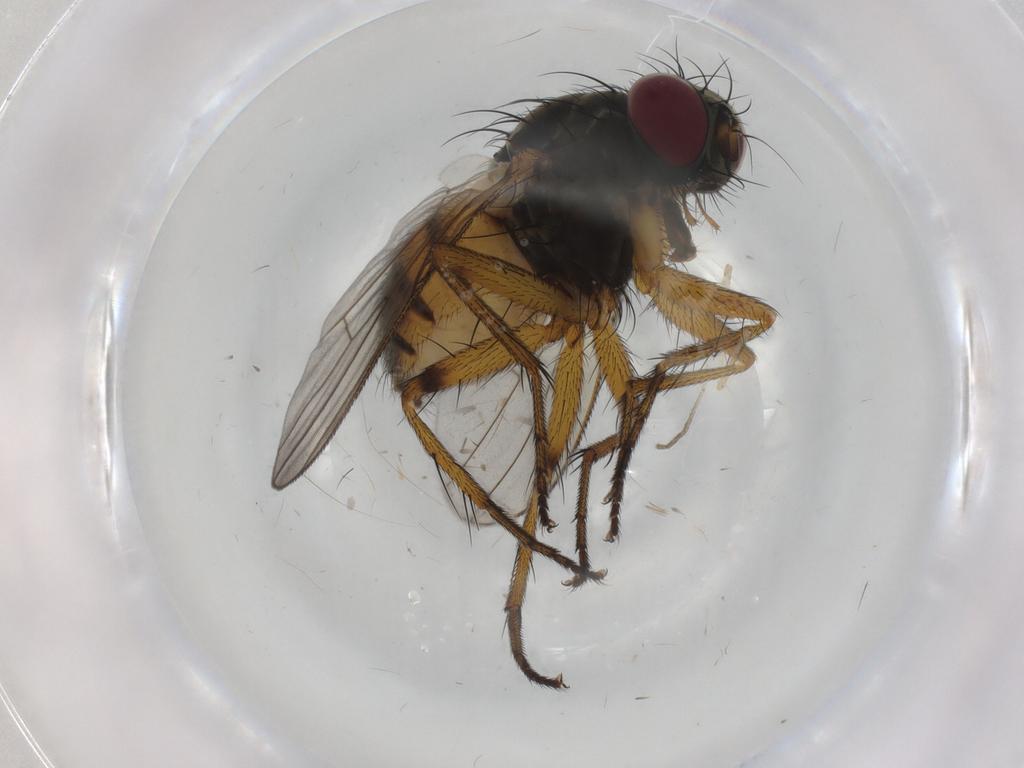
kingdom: Animalia
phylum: Arthropoda
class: Insecta
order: Diptera
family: Muscidae
